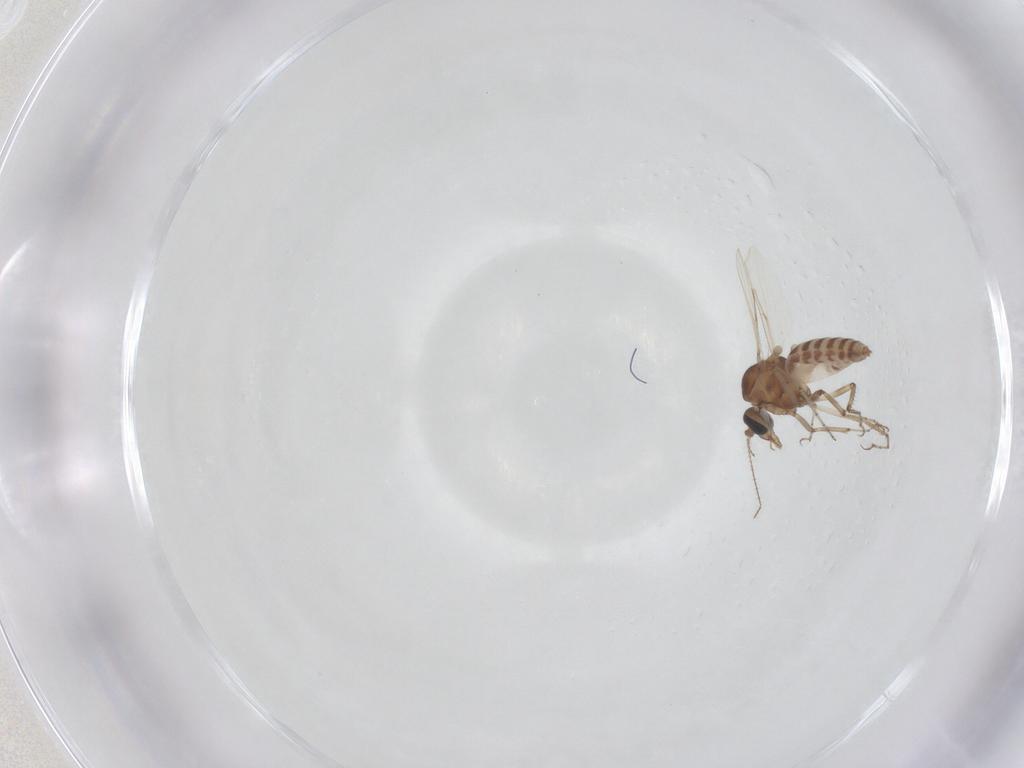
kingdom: Animalia
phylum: Arthropoda
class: Insecta
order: Diptera
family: Ceratopogonidae
